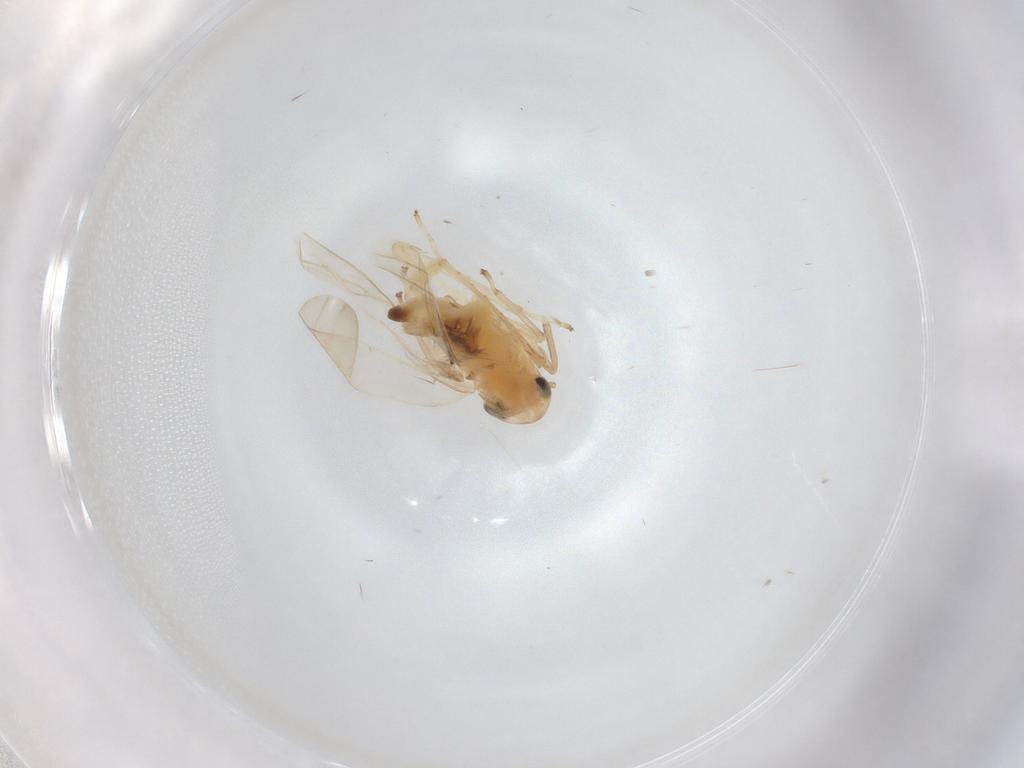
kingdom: Animalia
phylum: Arthropoda
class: Insecta
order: Hemiptera
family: Cicadellidae
